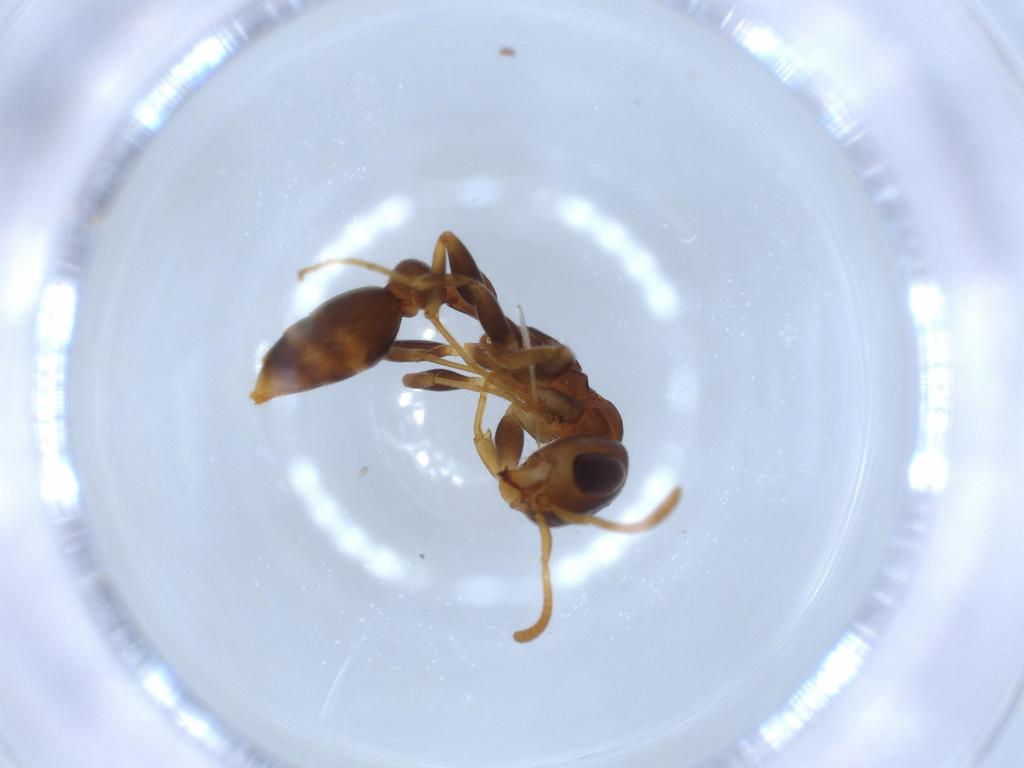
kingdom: Animalia
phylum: Arthropoda
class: Insecta
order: Hymenoptera
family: Formicidae
